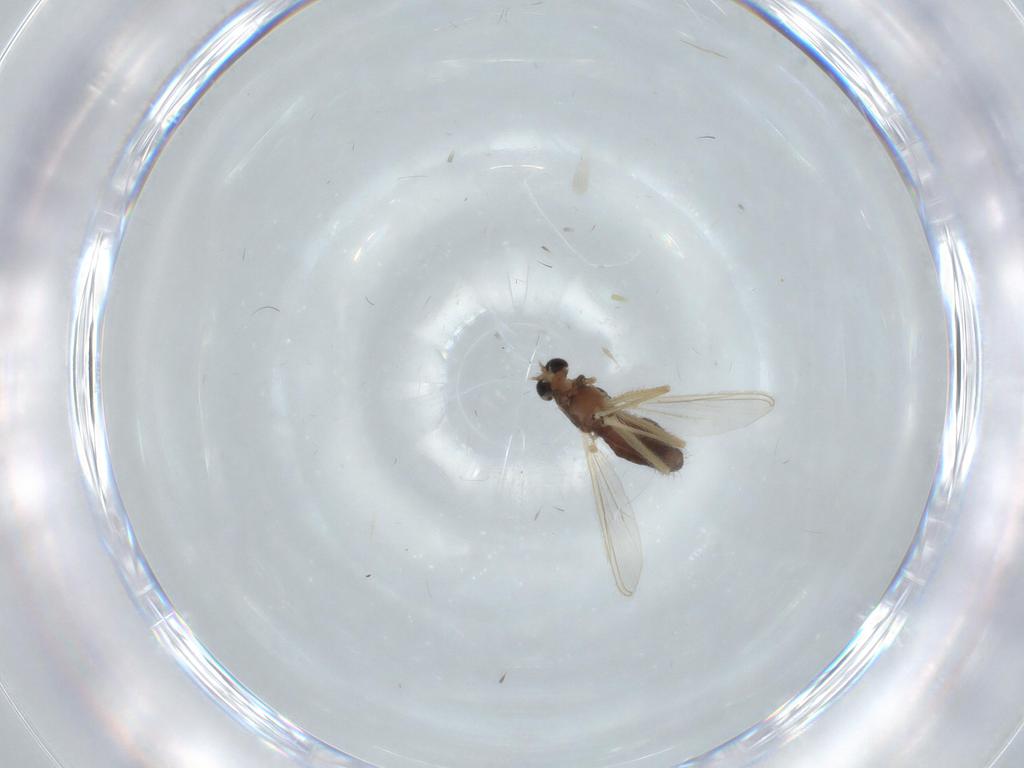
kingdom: Animalia
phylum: Arthropoda
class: Insecta
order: Diptera
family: Chironomidae
